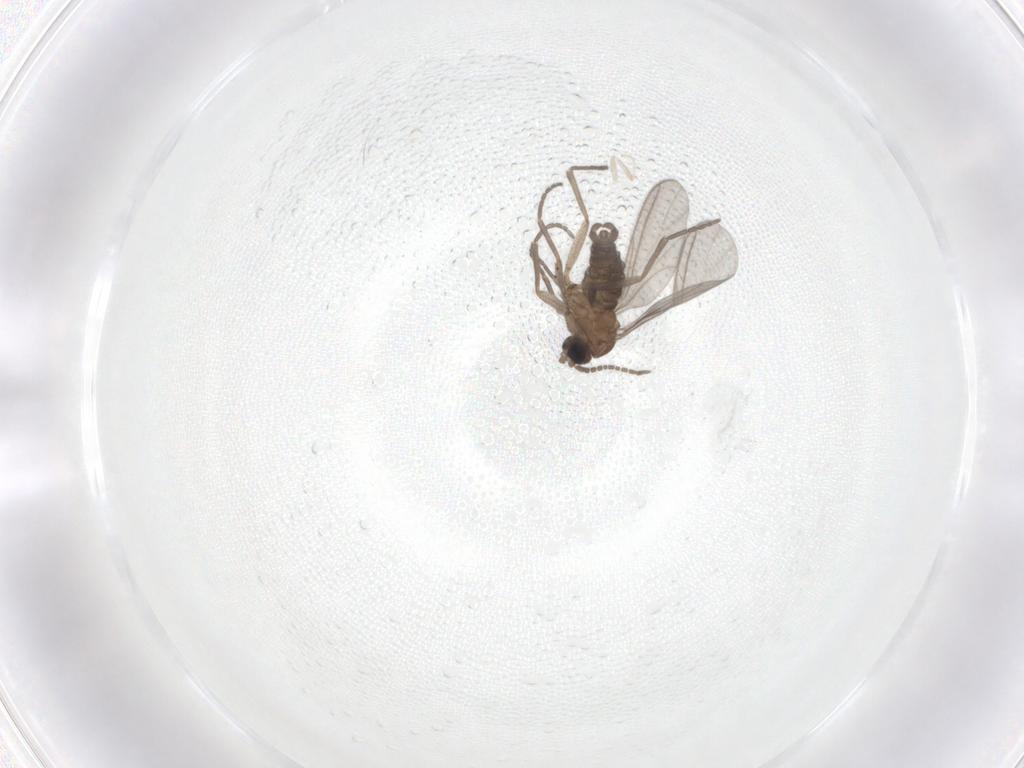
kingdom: Animalia
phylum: Arthropoda
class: Insecta
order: Diptera
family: Sciaridae
